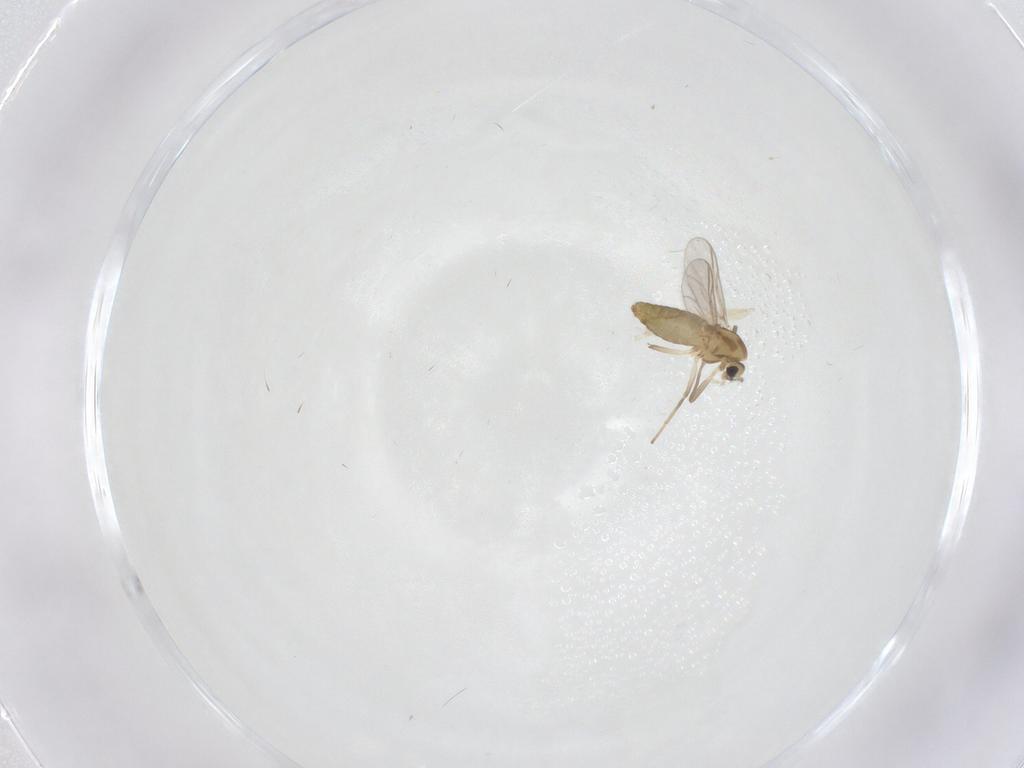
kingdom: Animalia
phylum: Arthropoda
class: Insecta
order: Diptera
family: Chironomidae
